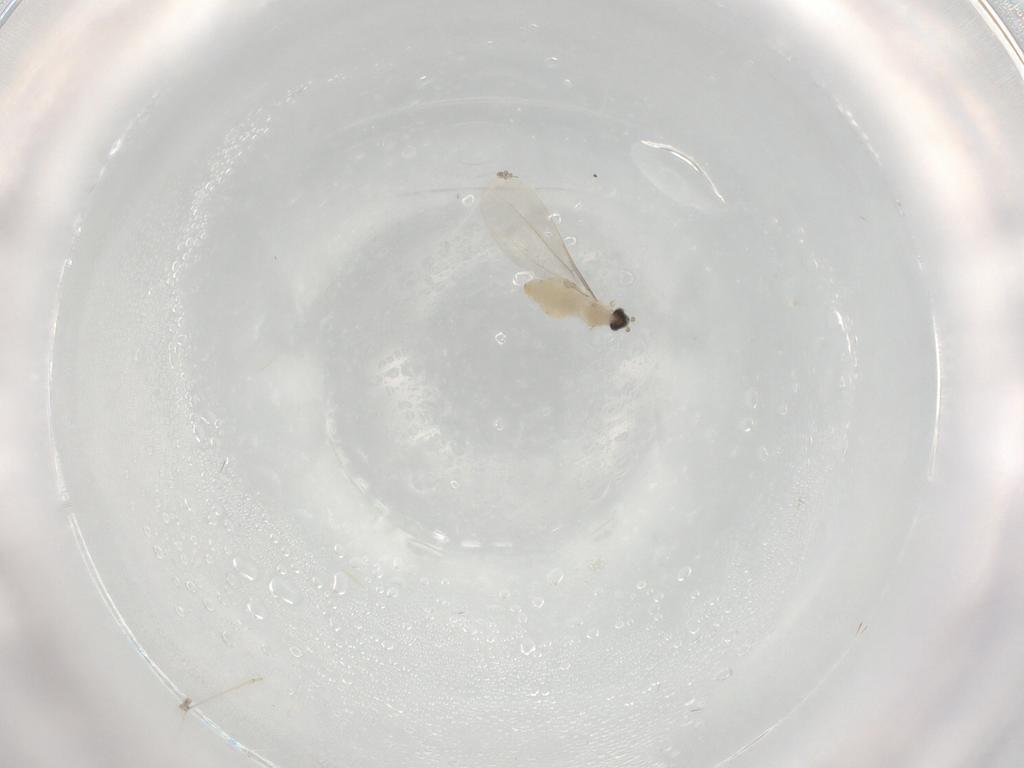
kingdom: Animalia
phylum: Arthropoda
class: Insecta
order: Diptera
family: Cecidomyiidae
